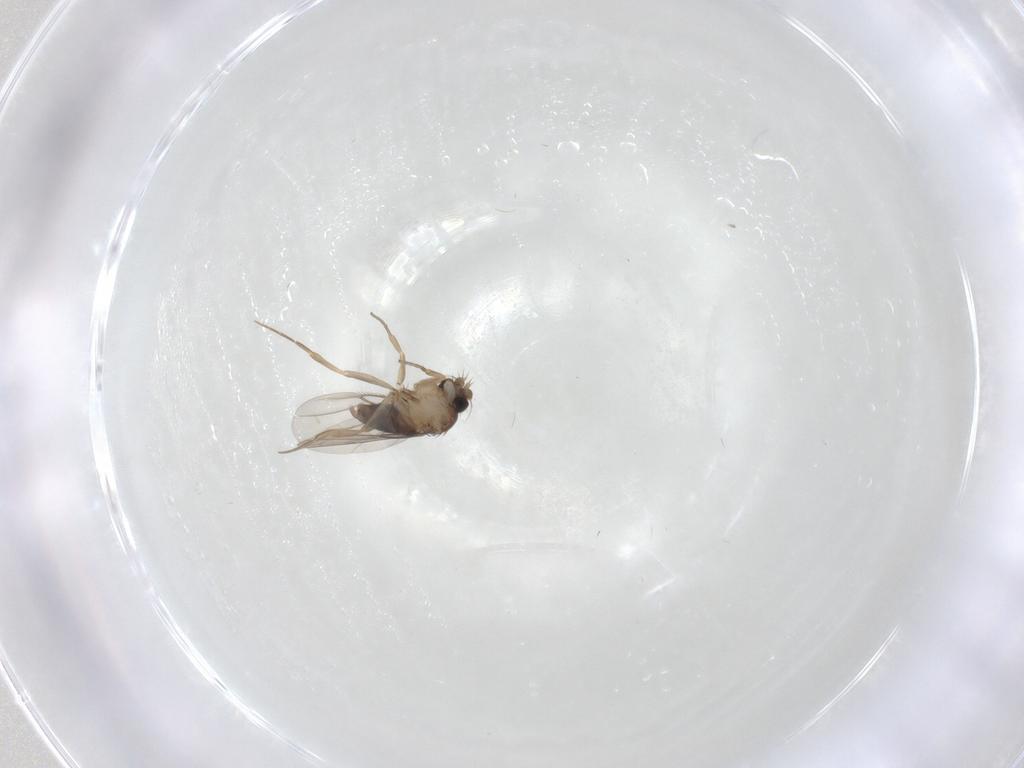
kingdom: Animalia
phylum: Arthropoda
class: Insecta
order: Diptera
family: Phoridae
